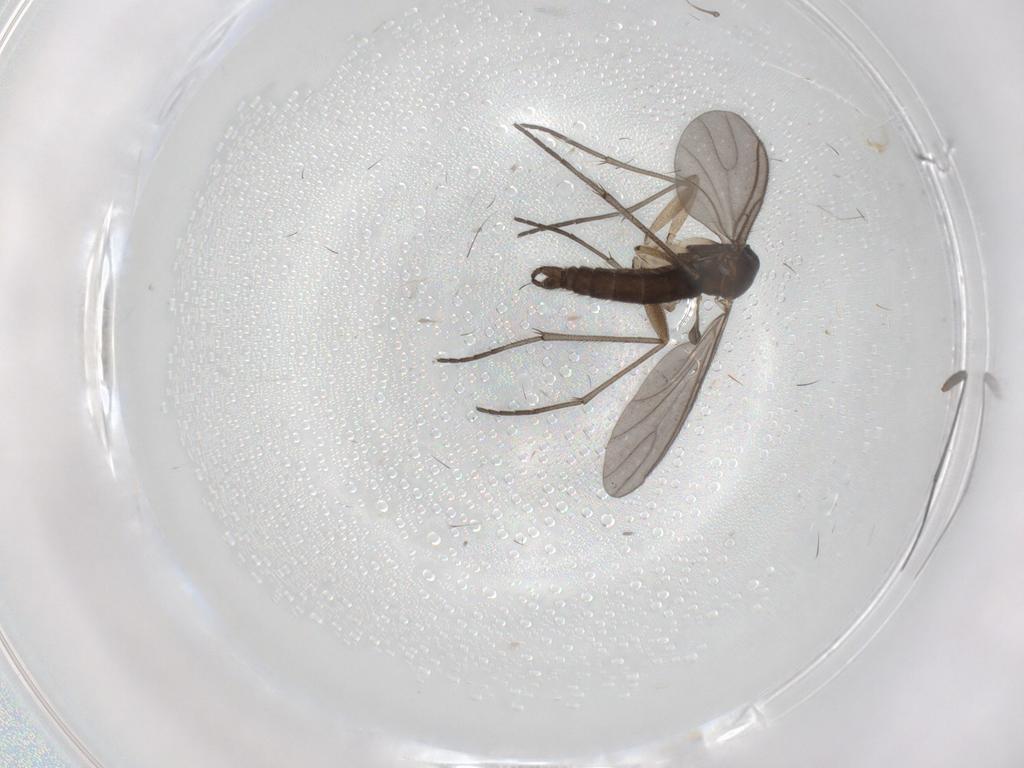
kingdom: Animalia
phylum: Arthropoda
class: Insecta
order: Diptera
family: Sciaridae
